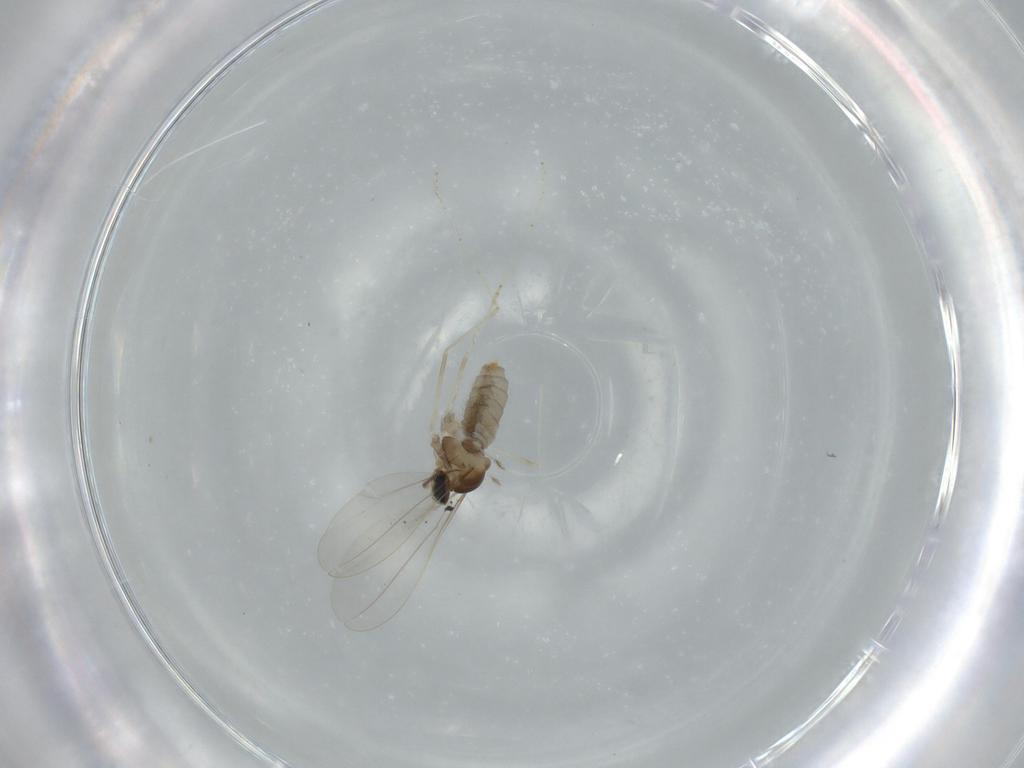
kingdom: Animalia
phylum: Arthropoda
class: Insecta
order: Diptera
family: Cecidomyiidae
